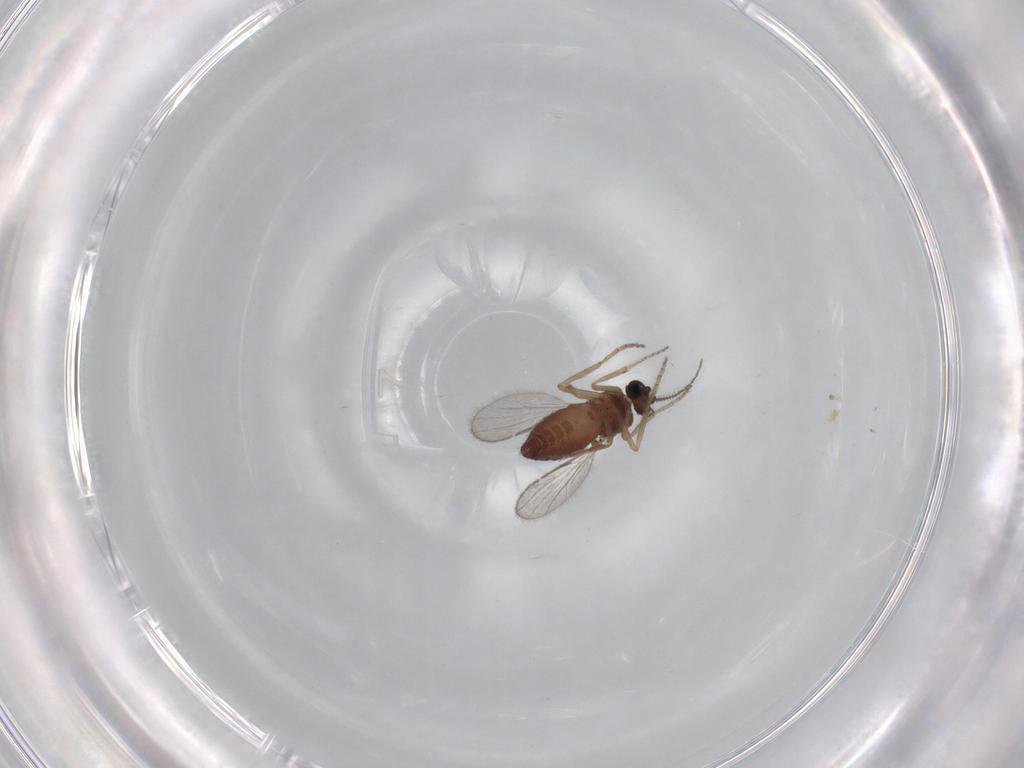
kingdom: Animalia
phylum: Arthropoda
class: Insecta
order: Diptera
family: Ceratopogonidae
